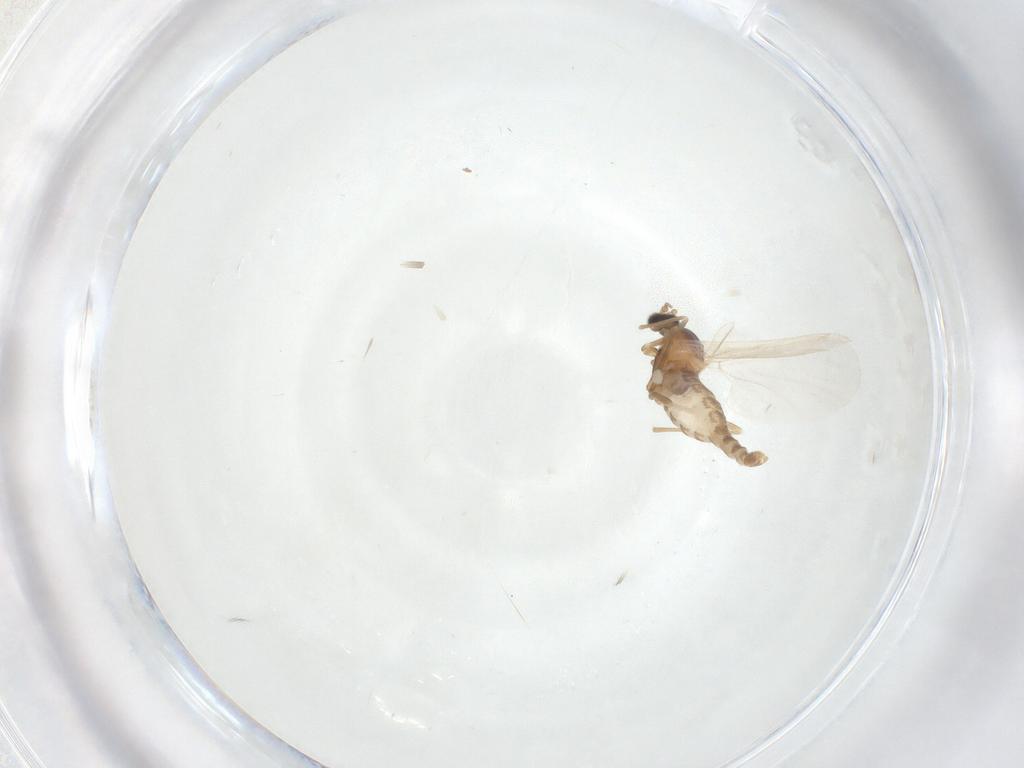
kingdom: Animalia
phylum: Arthropoda
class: Insecta
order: Diptera
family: Cecidomyiidae
